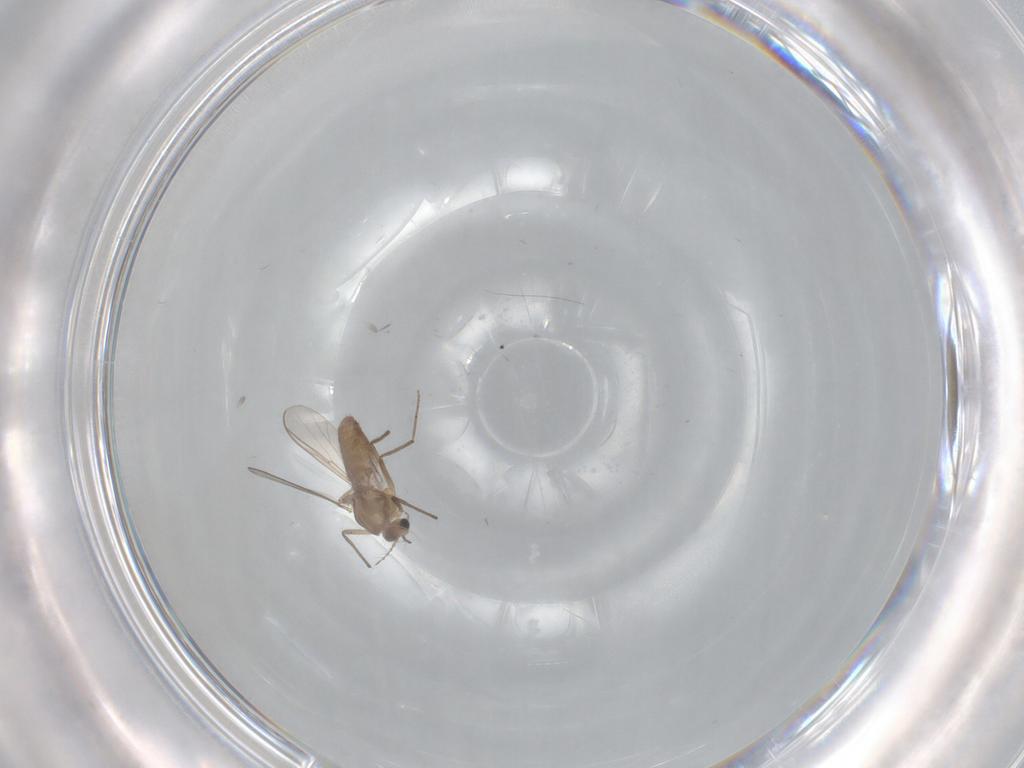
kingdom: Animalia
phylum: Arthropoda
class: Insecta
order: Diptera
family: Chironomidae
